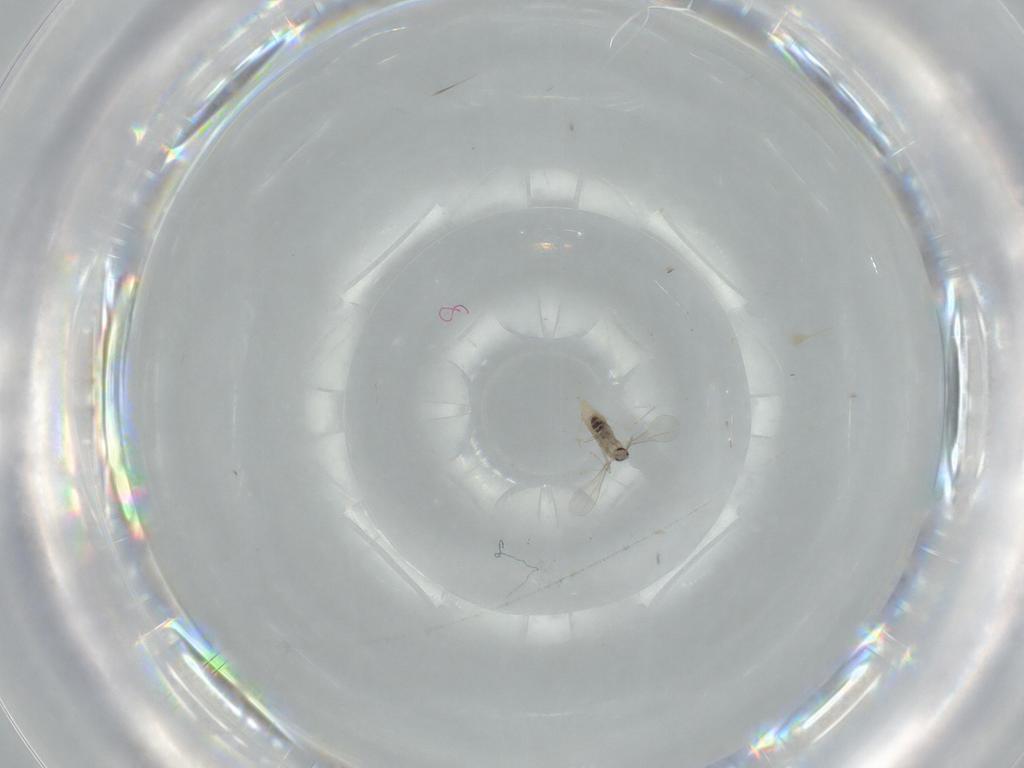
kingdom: Animalia
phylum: Arthropoda
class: Insecta
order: Diptera
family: Cecidomyiidae
